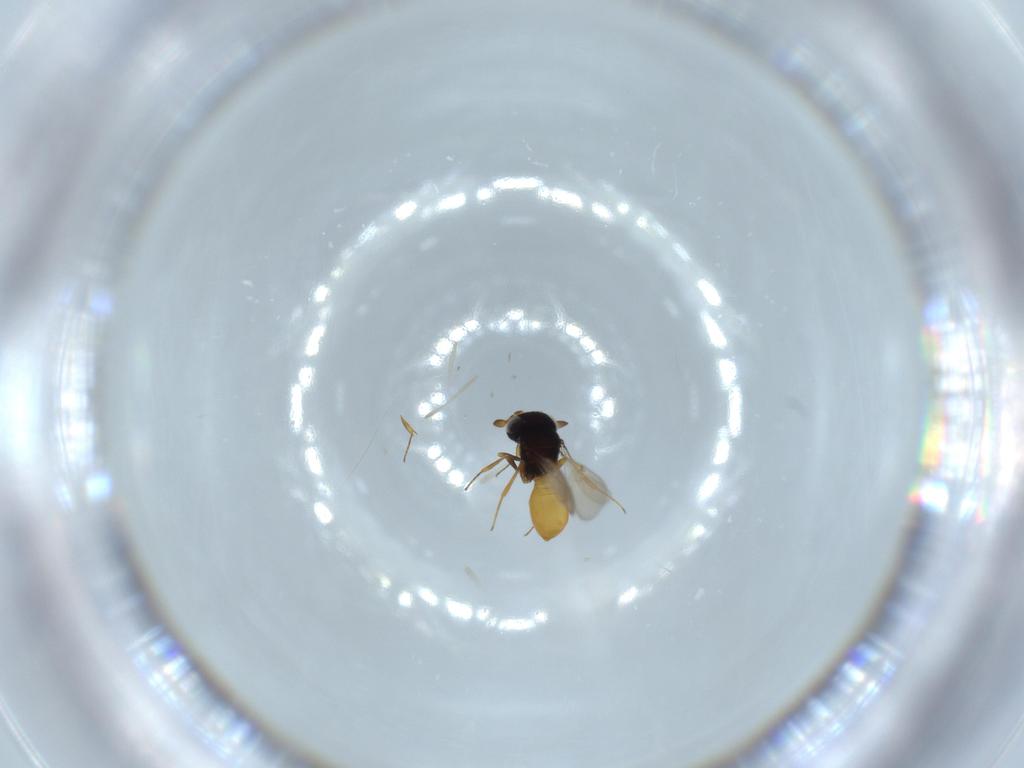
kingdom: Animalia
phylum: Arthropoda
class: Insecta
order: Hymenoptera
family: Scelionidae
